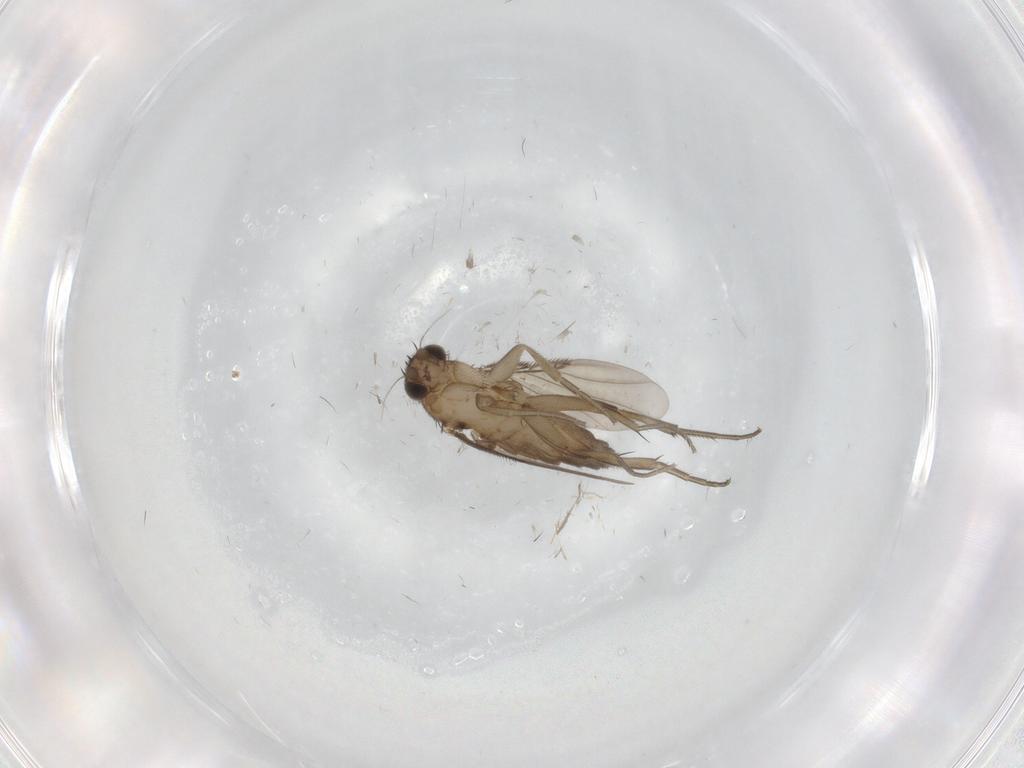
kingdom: Animalia
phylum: Arthropoda
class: Insecta
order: Diptera
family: Phoridae
